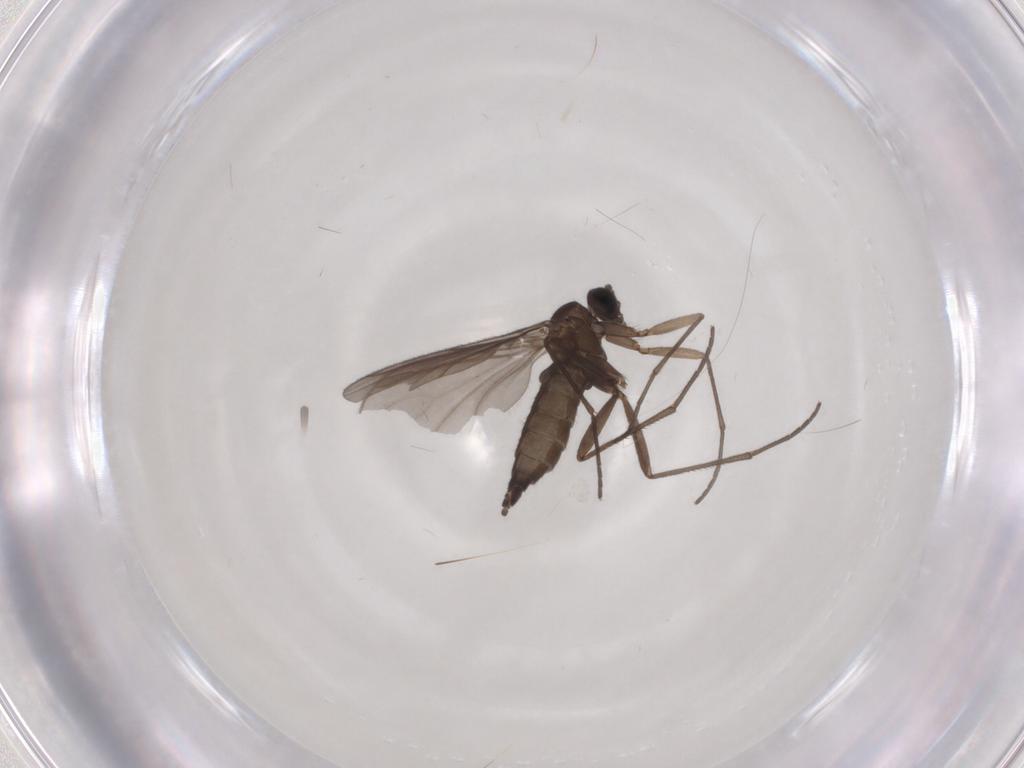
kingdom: Animalia
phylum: Arthropoda
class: Insecta
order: Diptera
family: Sciaridae
